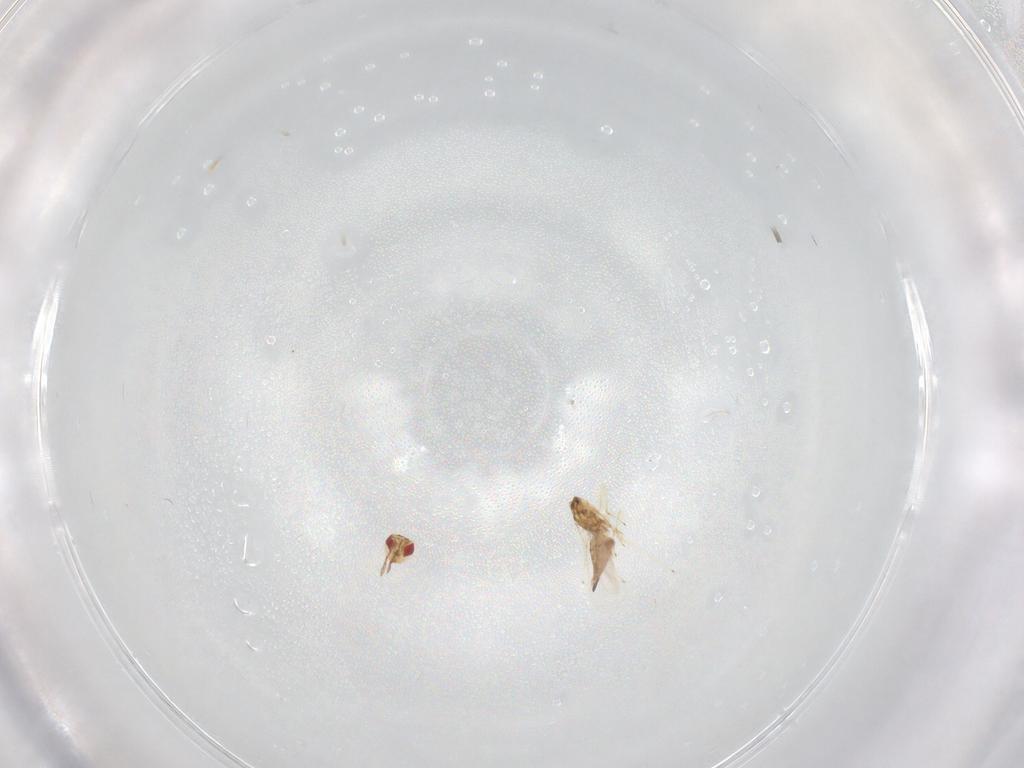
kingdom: Animalia
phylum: Arthropoda
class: Insecta
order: Hymenoptera
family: Eulophidae
